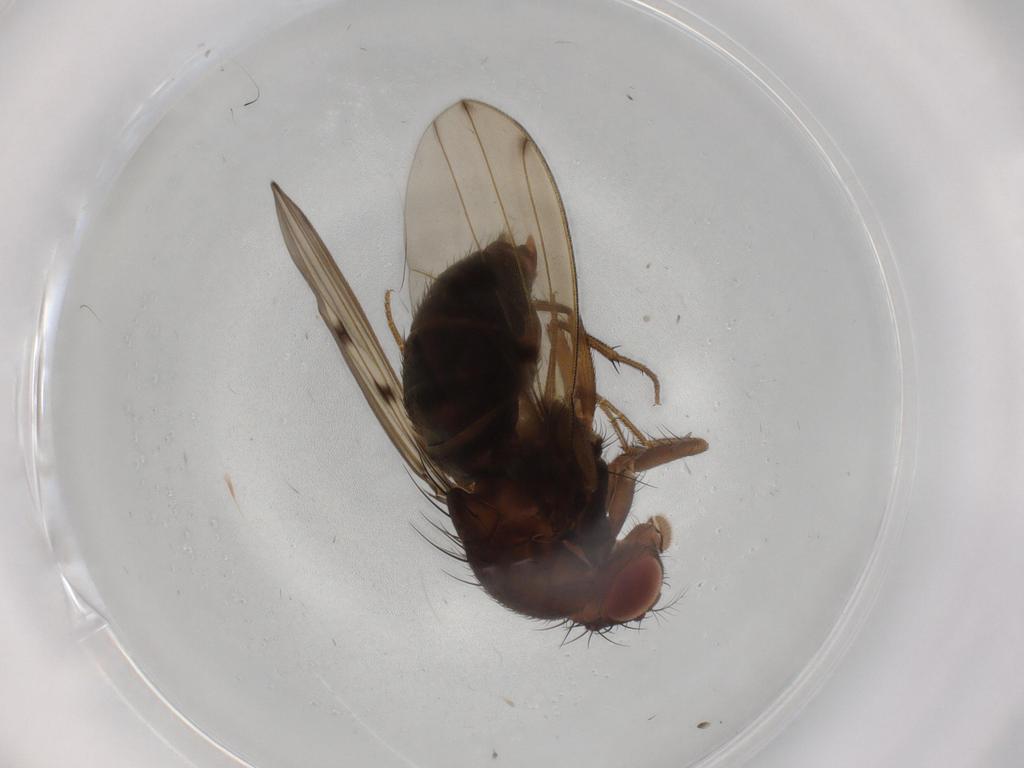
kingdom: Animalia
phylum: Arthropoda
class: Insecta
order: Diptera
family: Drosophilidae
